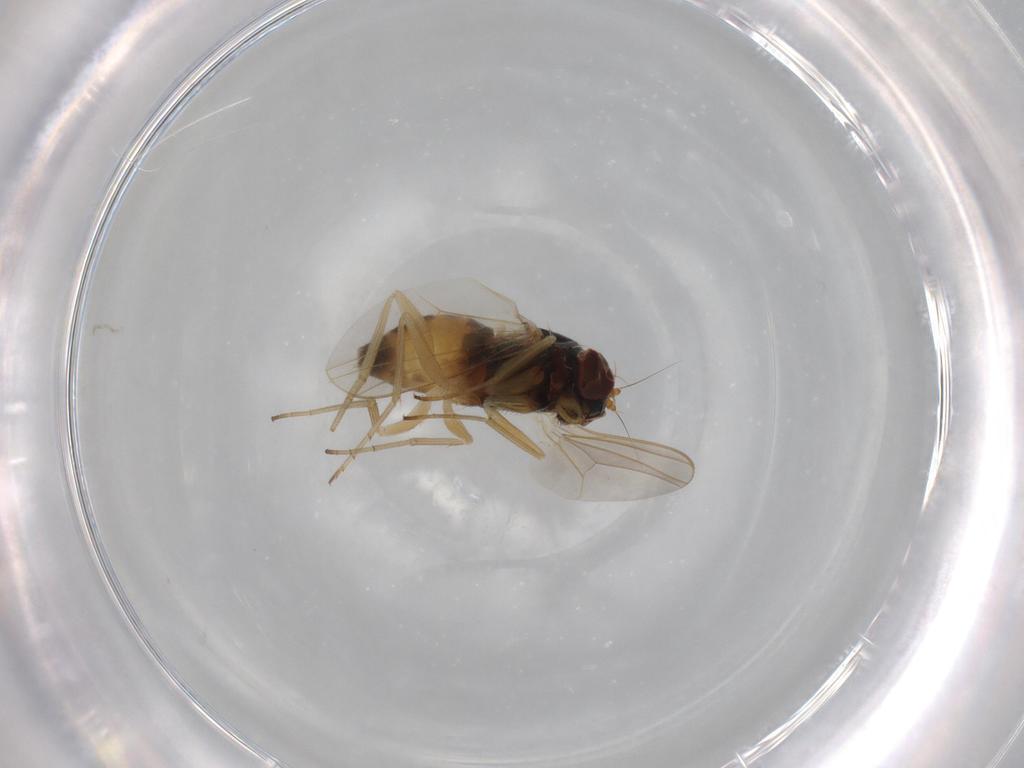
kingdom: Animalia
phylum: Arthropoda
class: Insecta
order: Diptera
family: Dolichopodidae
